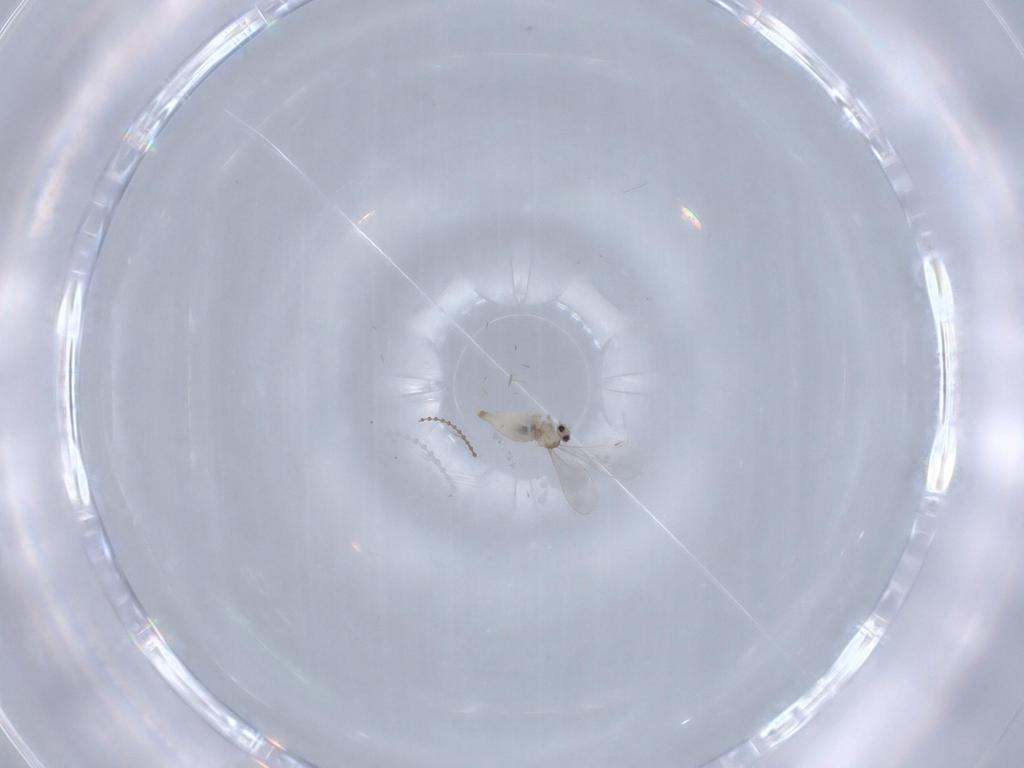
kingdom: Animalia
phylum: Arthropoda
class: Insecta
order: Diptera
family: Cecidomyiidae
